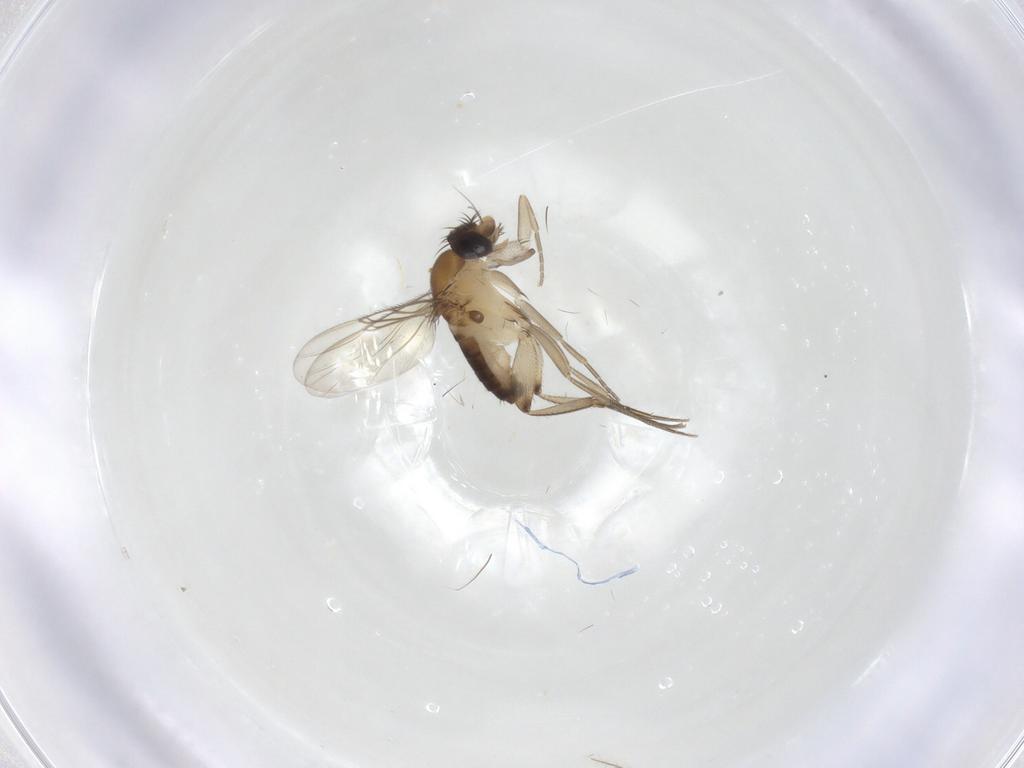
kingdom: Animalia
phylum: Arthropoda
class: Insecta
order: Diptera
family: Phoridae
